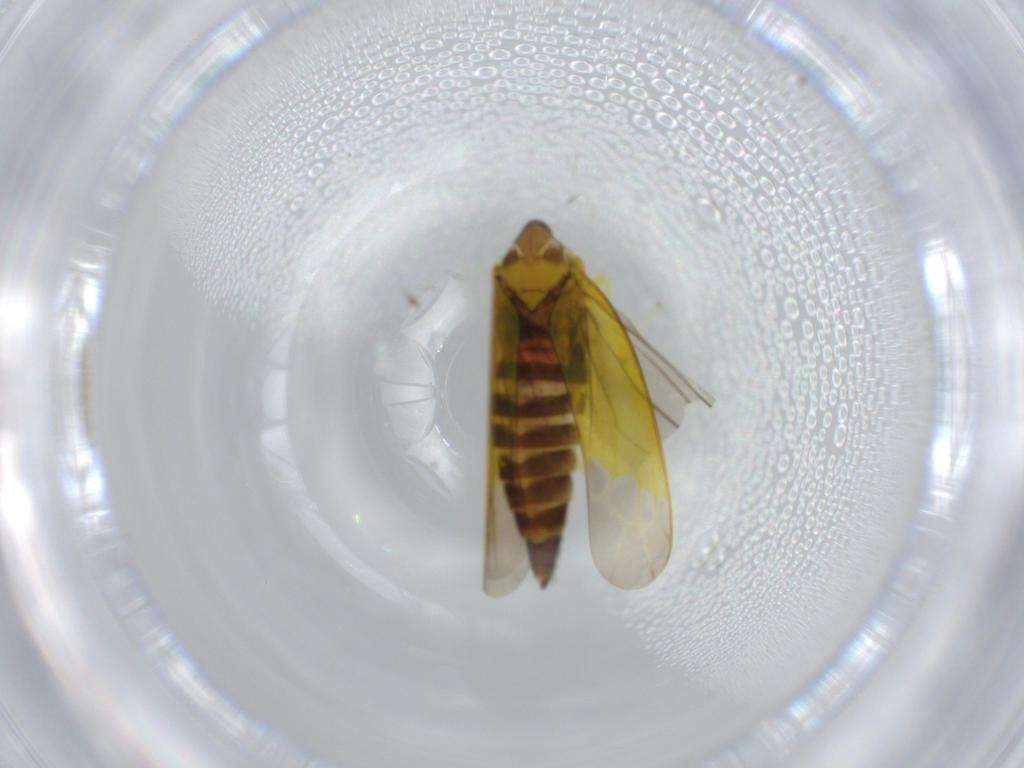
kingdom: Animalia
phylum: Arthropoda
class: Insecta
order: Hemiptera
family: Cicadellidae
